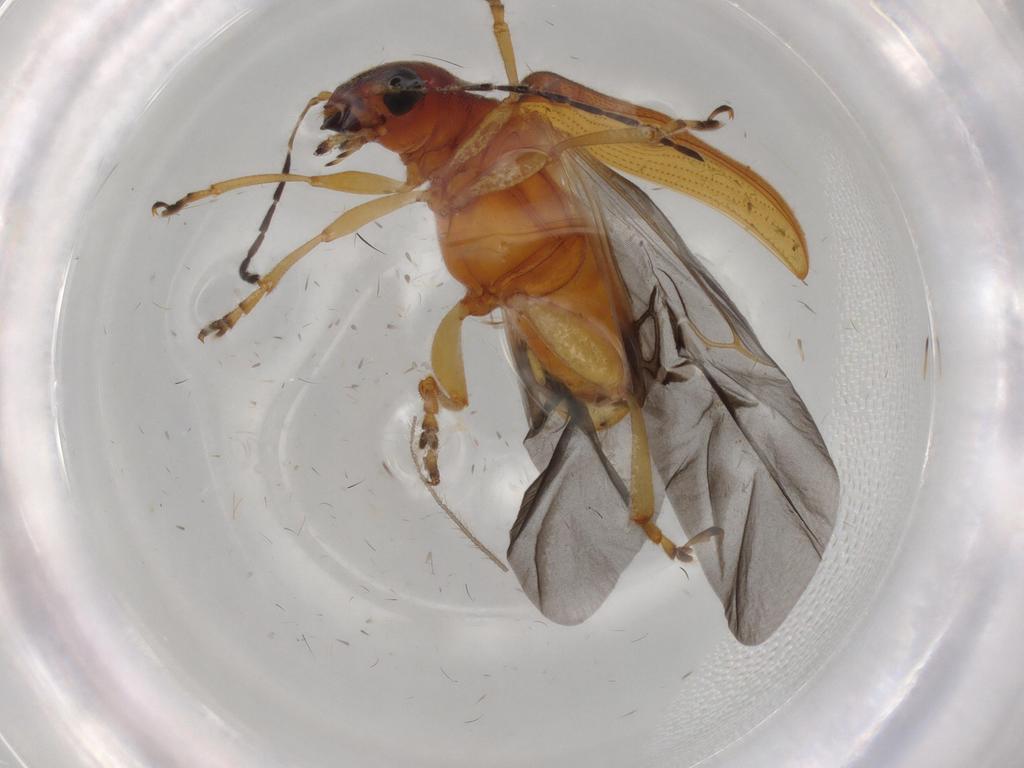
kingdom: Animalia
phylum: Arthropoda
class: Insecta
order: Coleoptera
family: Chrysomelidae
